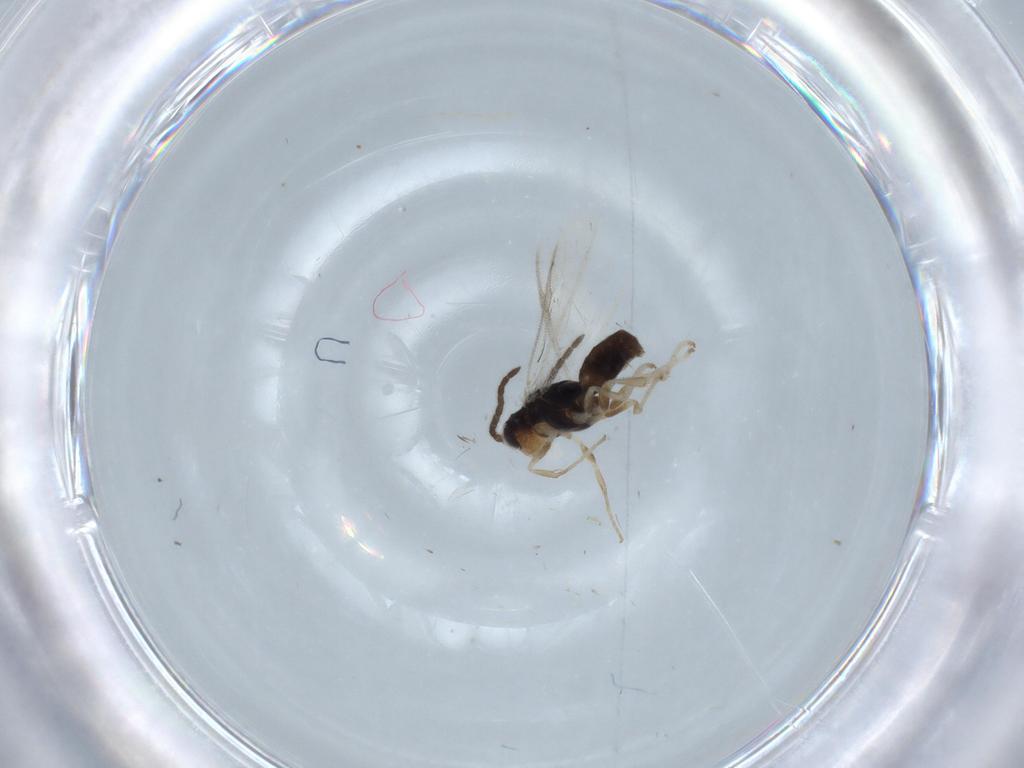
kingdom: Animalia
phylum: Arthropoda
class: Insecta
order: Hymenoptera
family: Dryinidae
